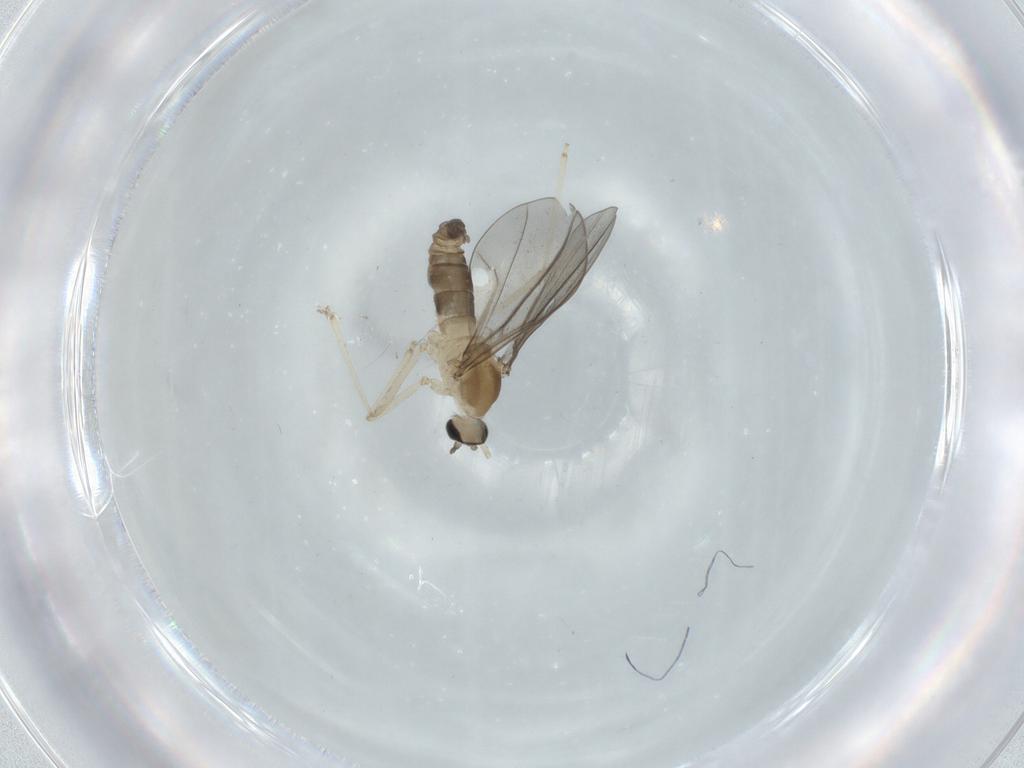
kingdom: Animalia
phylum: Arthropoda
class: Insecta
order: Diptera
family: Cecidomyiidae
